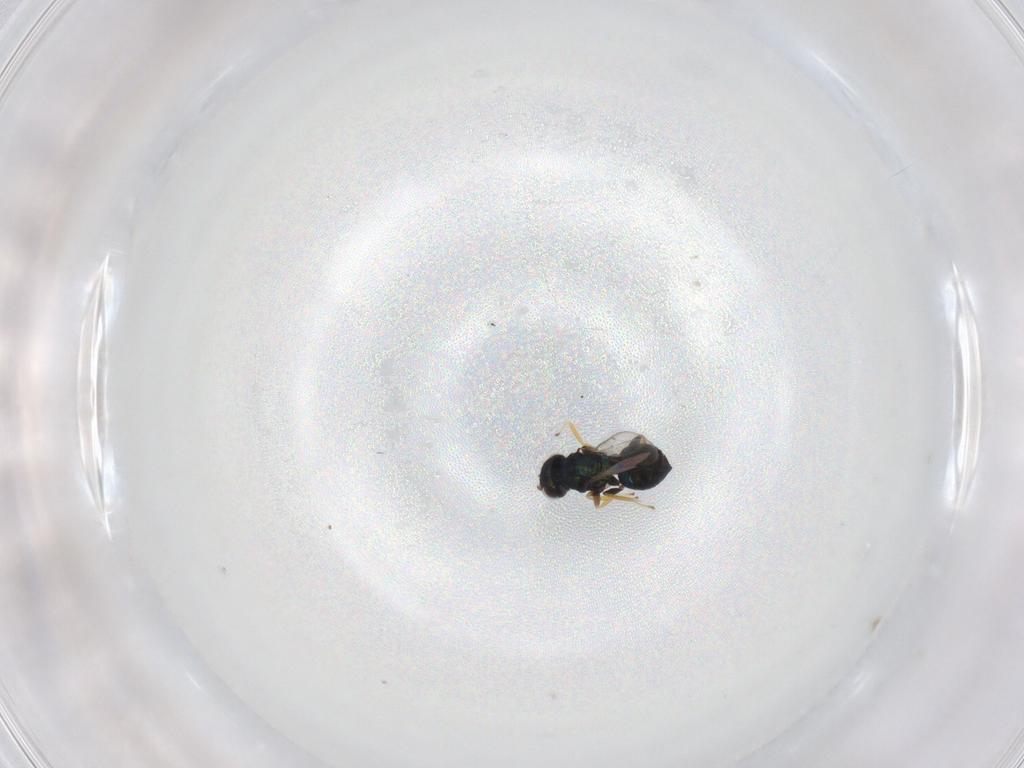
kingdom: Animalia
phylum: Arthropoda
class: Insecta
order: Hymenoptera
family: Eulophidae
